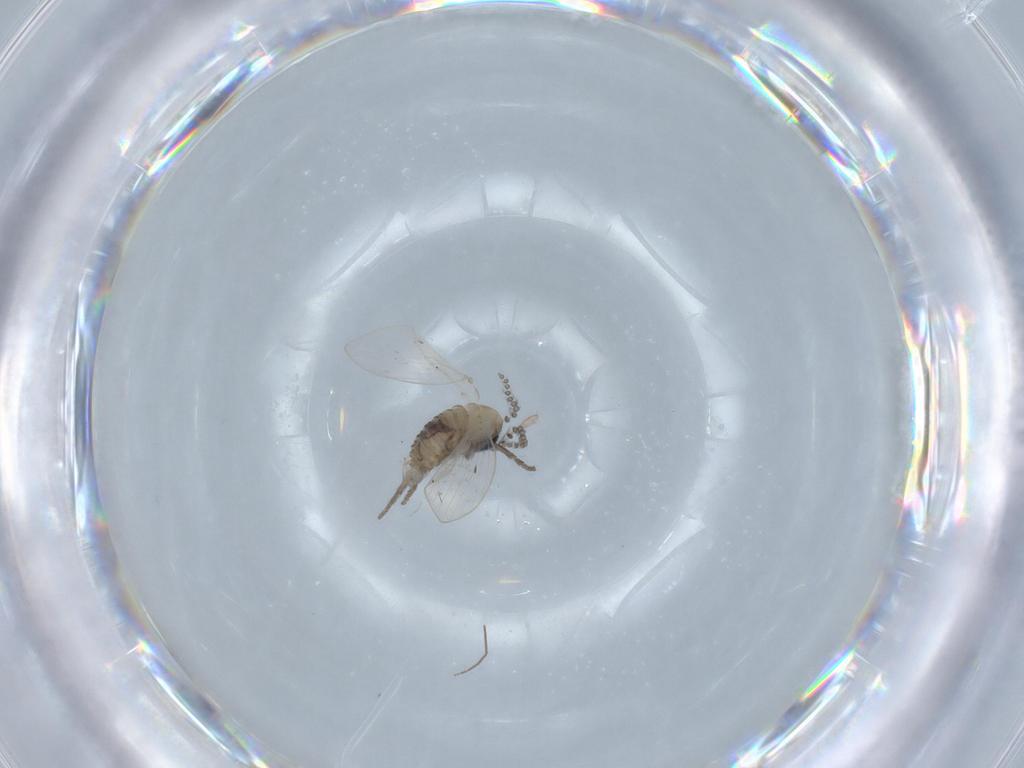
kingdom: Animalia
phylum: Arthropoda
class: Insecta
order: Diptera
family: Psychodidae
